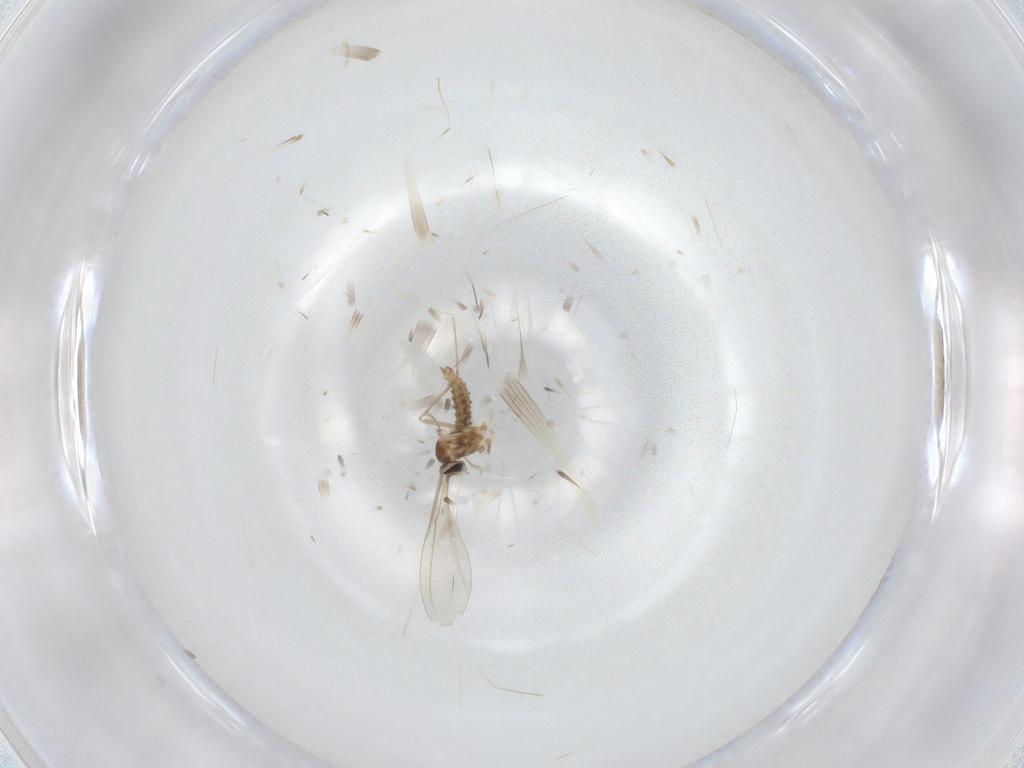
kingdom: Animalia
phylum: Arthropoda
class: Insecta
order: Diptera
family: Cecidomyiidae
